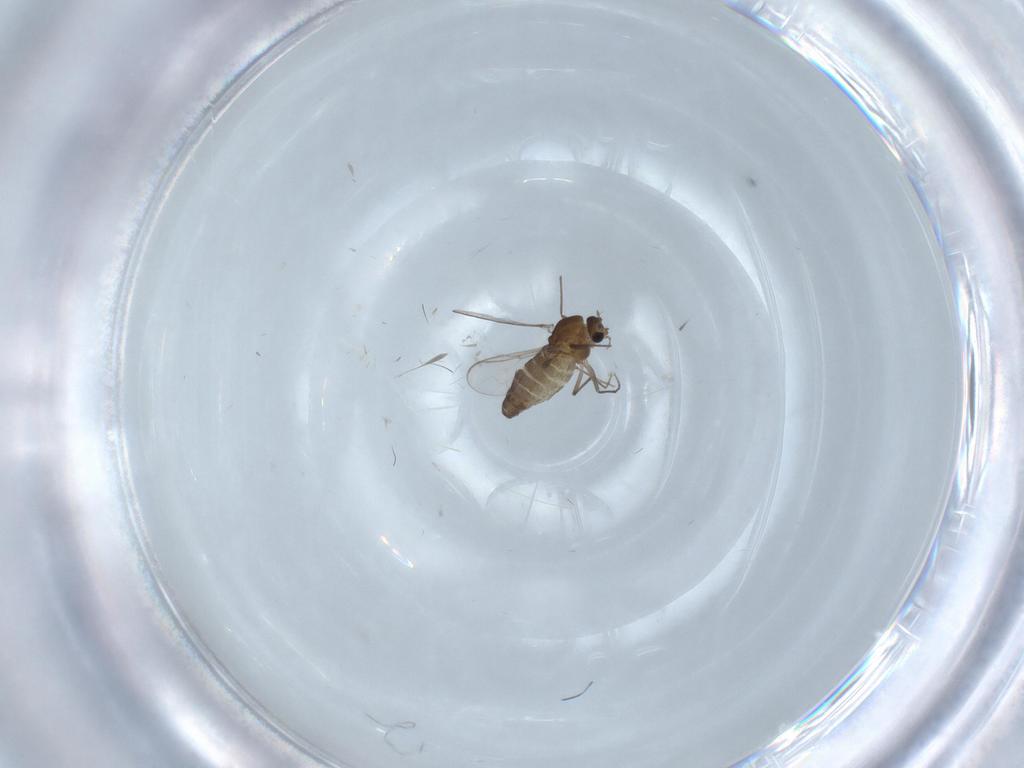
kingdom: Animalia
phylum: Arthropoda
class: Insecta
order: Diptera
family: Chironomidae
